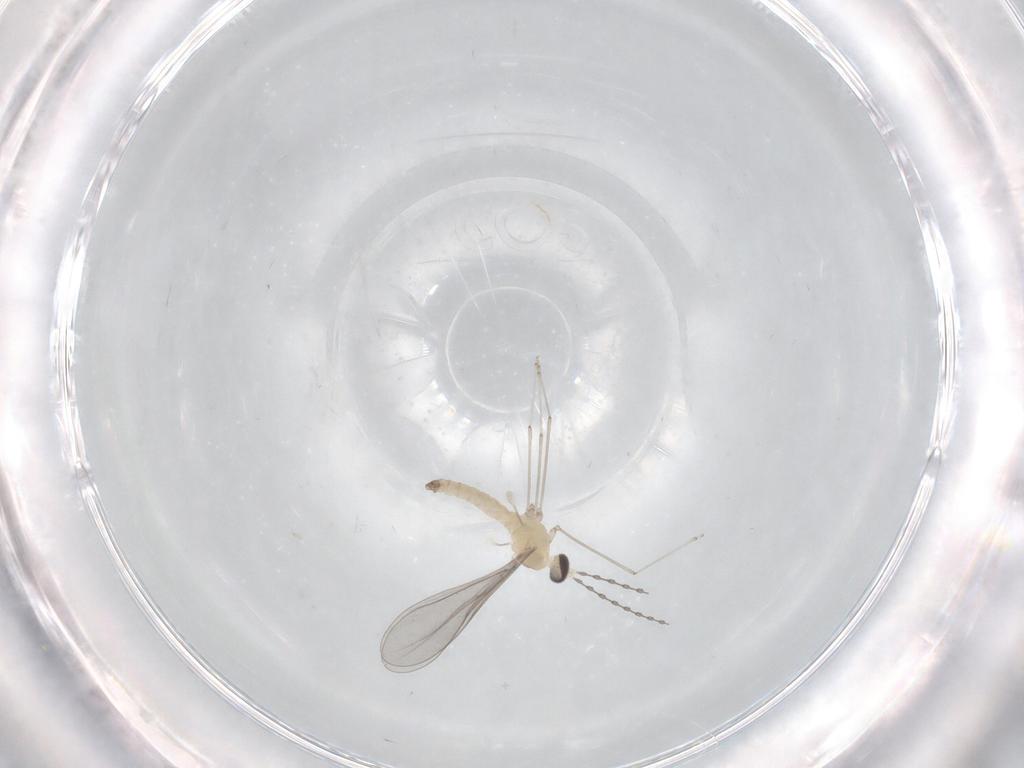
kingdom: Animalia
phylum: Arthropoda
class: Insecta
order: Diptera
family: Cecidomyiidae
